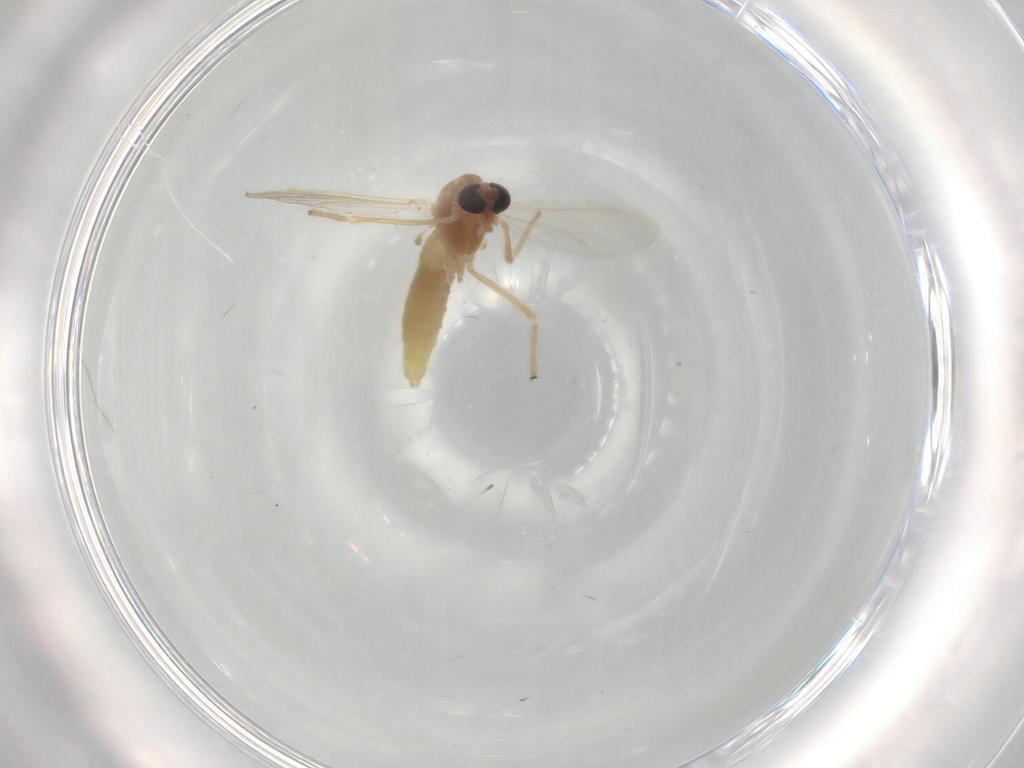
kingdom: Animalia
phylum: Arthropoda
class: Insecta
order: Diptera
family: Chironomidae
